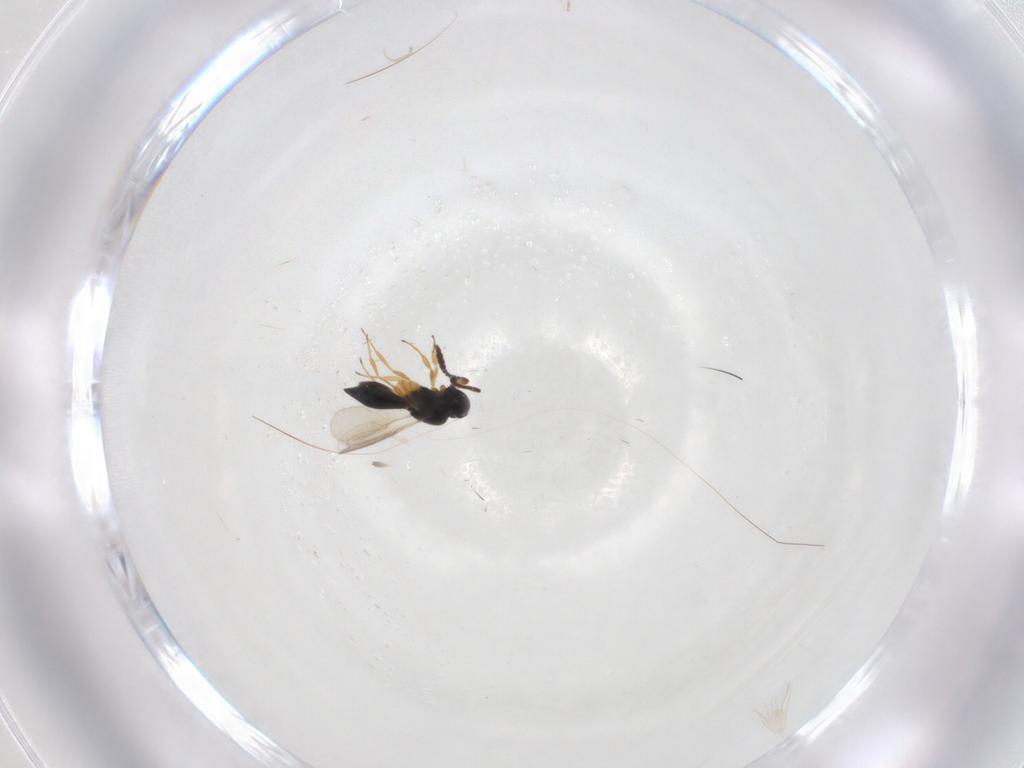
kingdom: Animalia
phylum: Arthropoda
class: Insecta
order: Hymenoptera
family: Scelionidae
